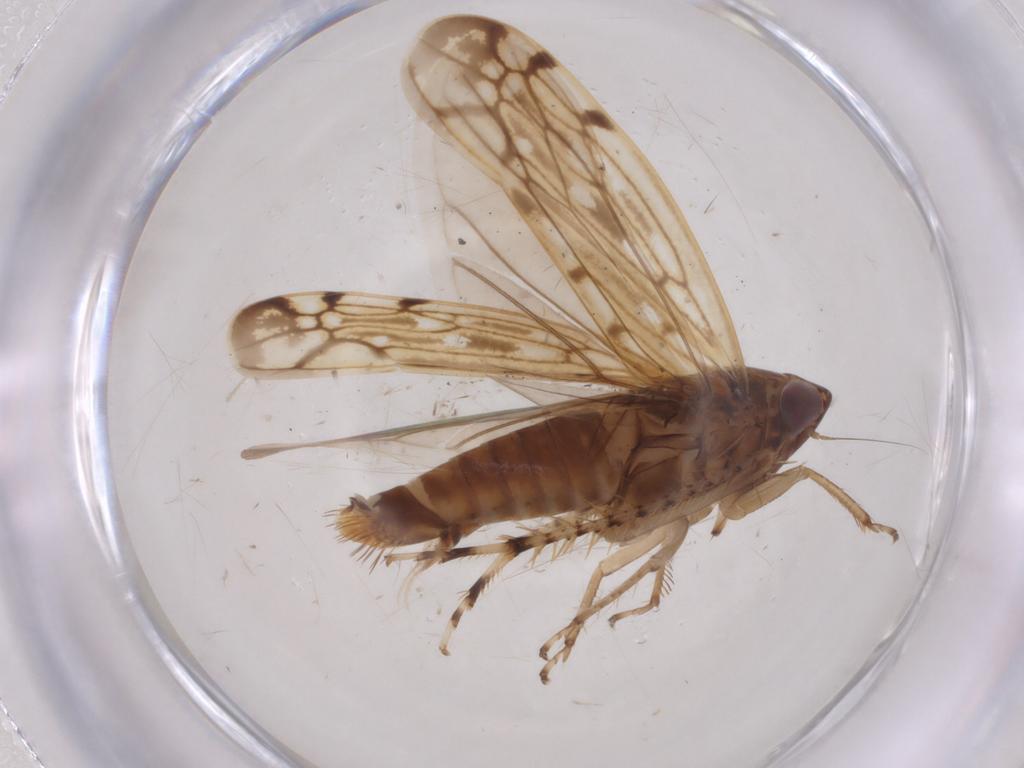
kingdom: Animalia
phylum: Arthropoda
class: Insecta
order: Hemiptera
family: Cicadellidae
